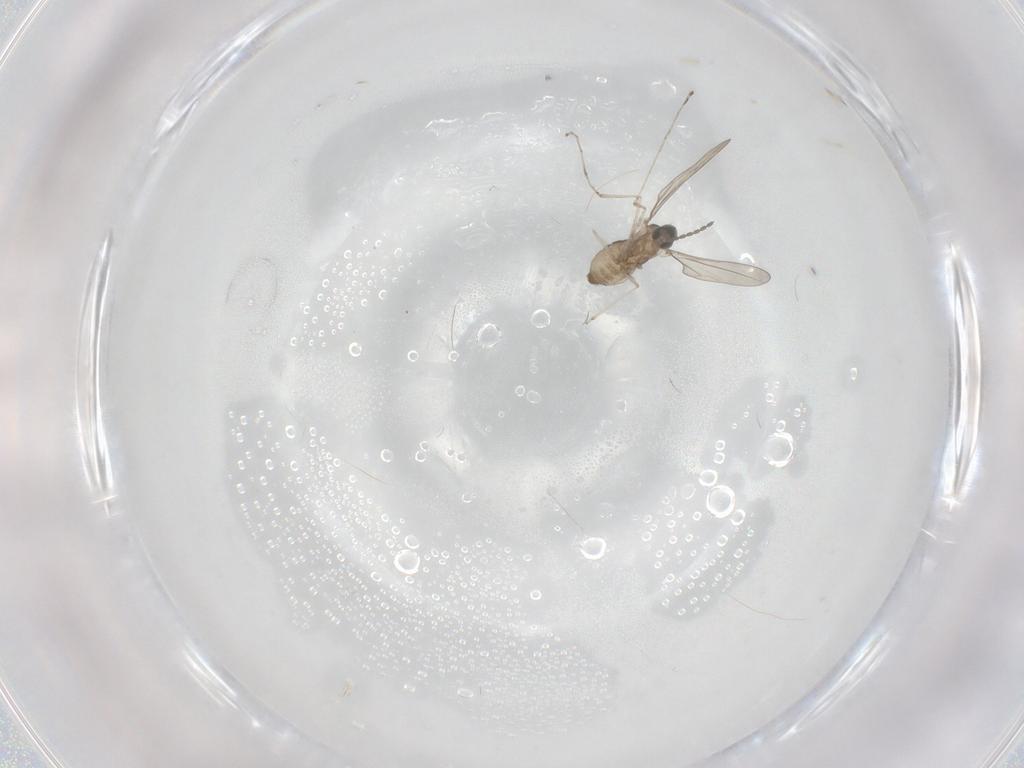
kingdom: Animalia
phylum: Arthropoda
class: Insecta
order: Diptera
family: Cecidomyiidae
